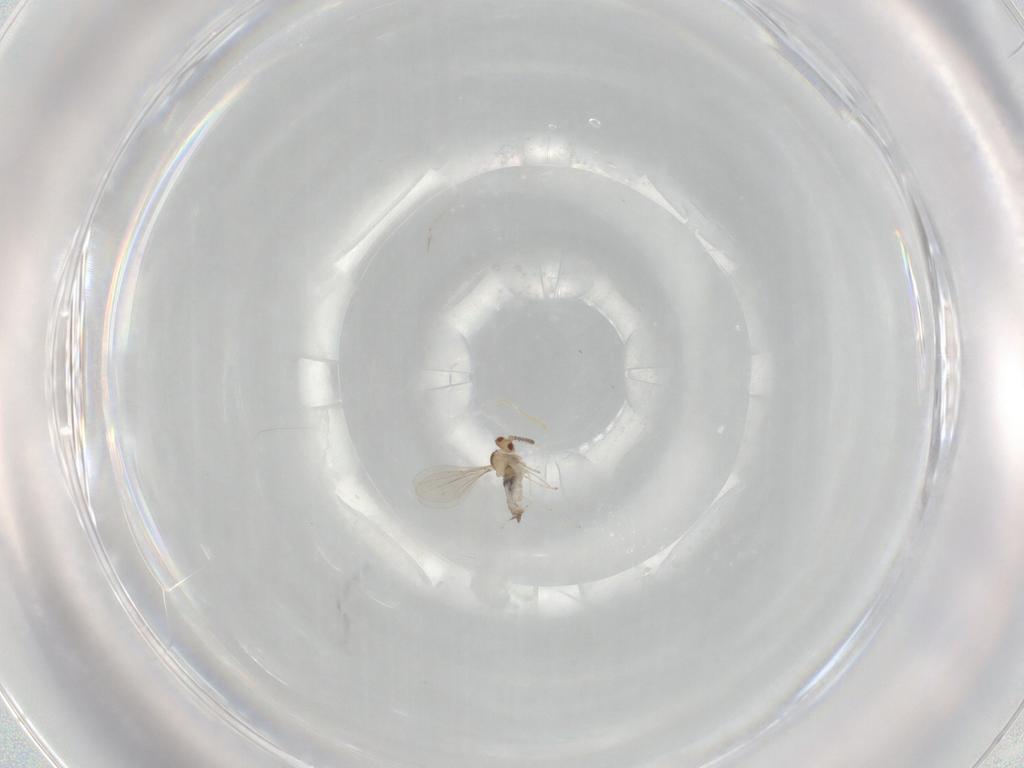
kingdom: Animalia
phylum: Arthropoda
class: Insecta
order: Diptera
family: Cecidomyiidae
